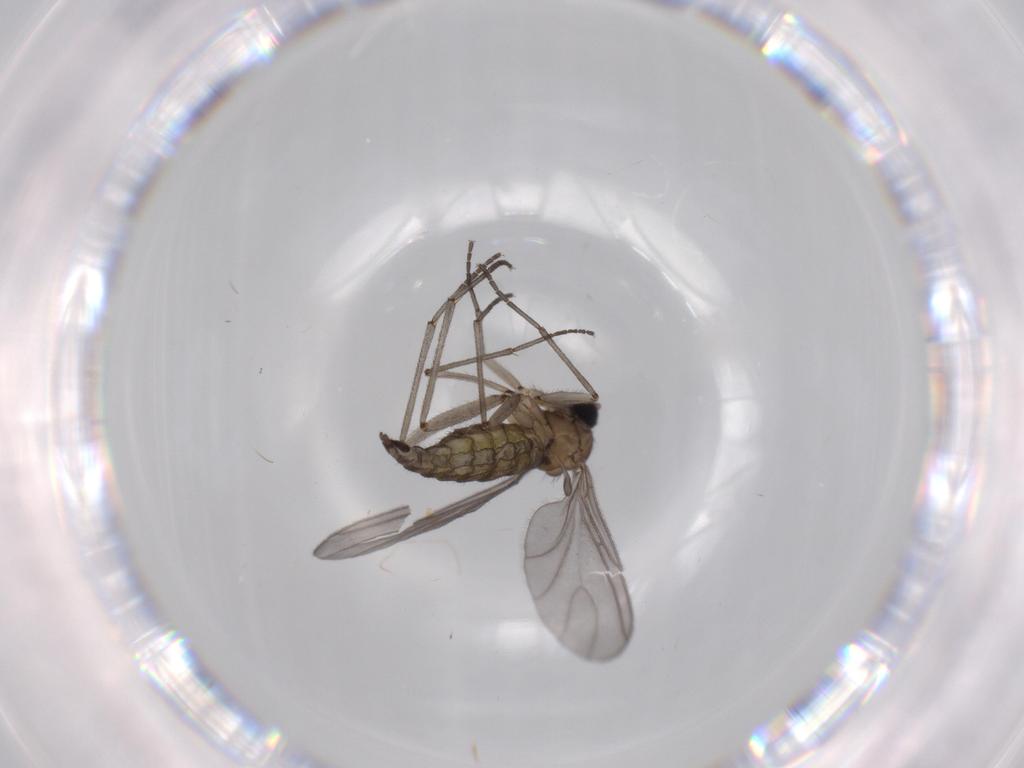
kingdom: Animalia
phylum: Arthropoda
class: Insecta
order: Diptera
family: Sciaridae
